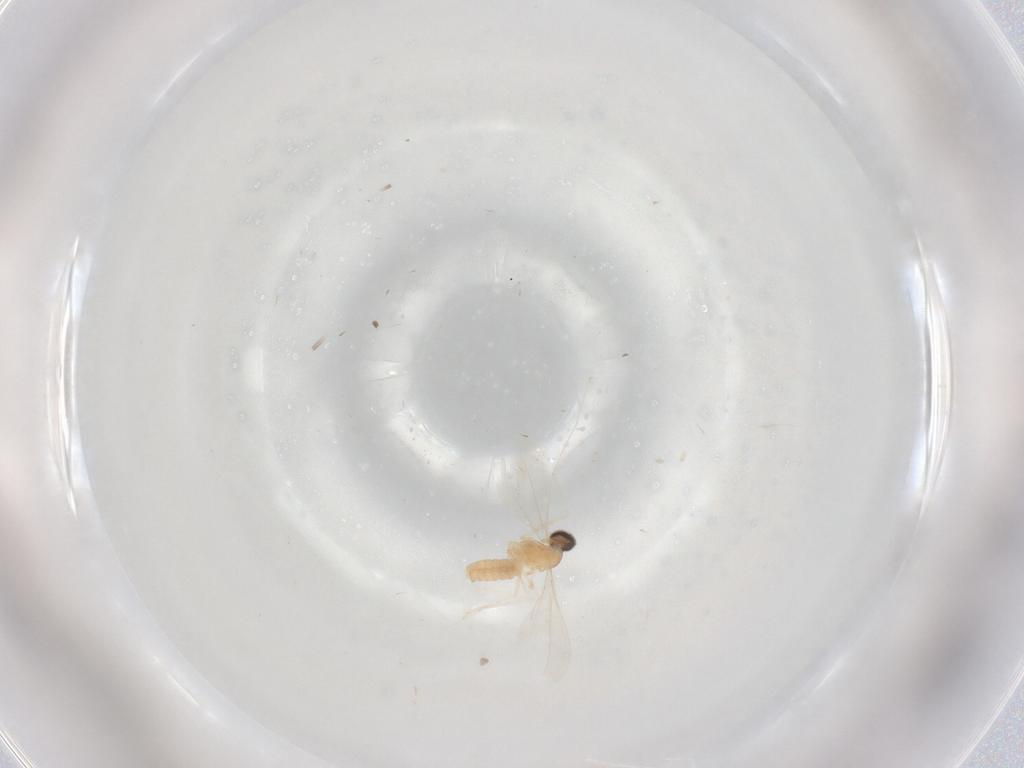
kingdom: Animalia
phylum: Arthropoda
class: Insecta
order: Diptera
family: Cecidomyiidae
